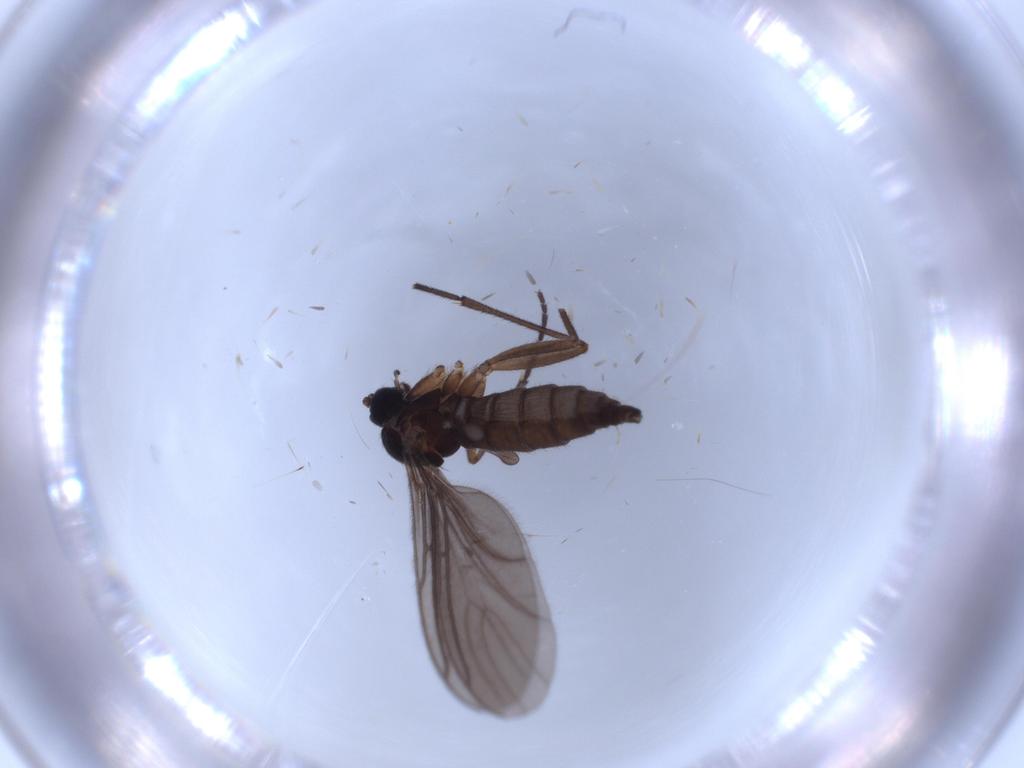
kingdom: Animalia
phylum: Arthropoda
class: Insecta
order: Diptera
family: Sciaridae
